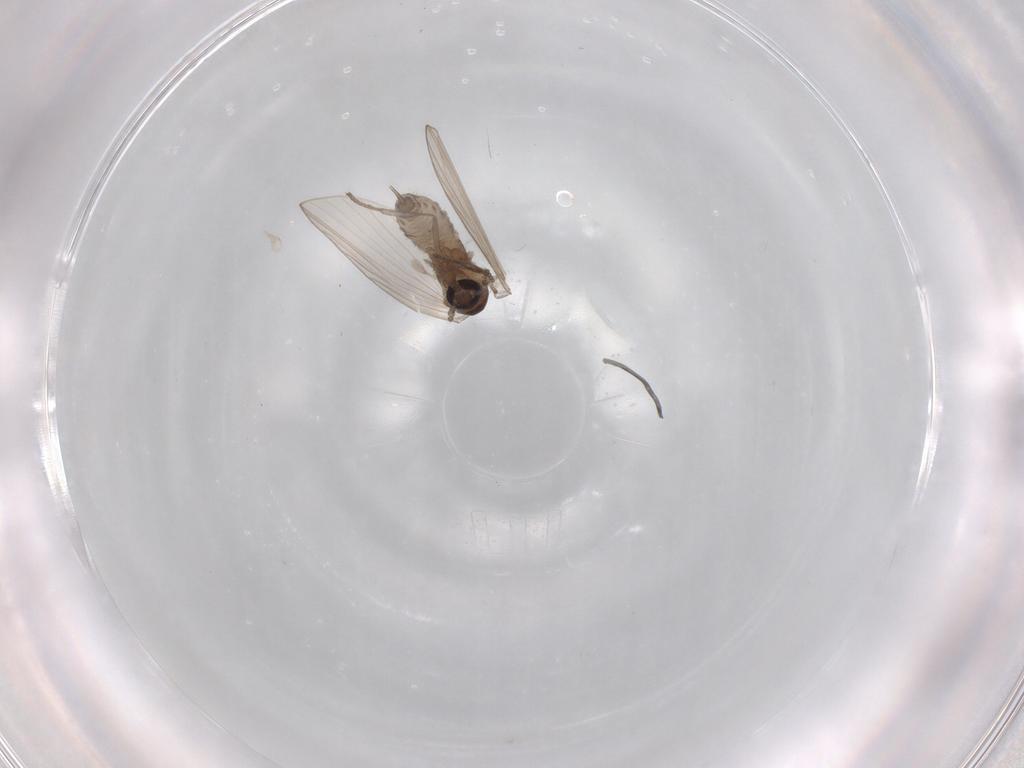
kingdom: Animalia
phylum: Arthropoda
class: Insecta
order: Diptera
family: Psychodidae
